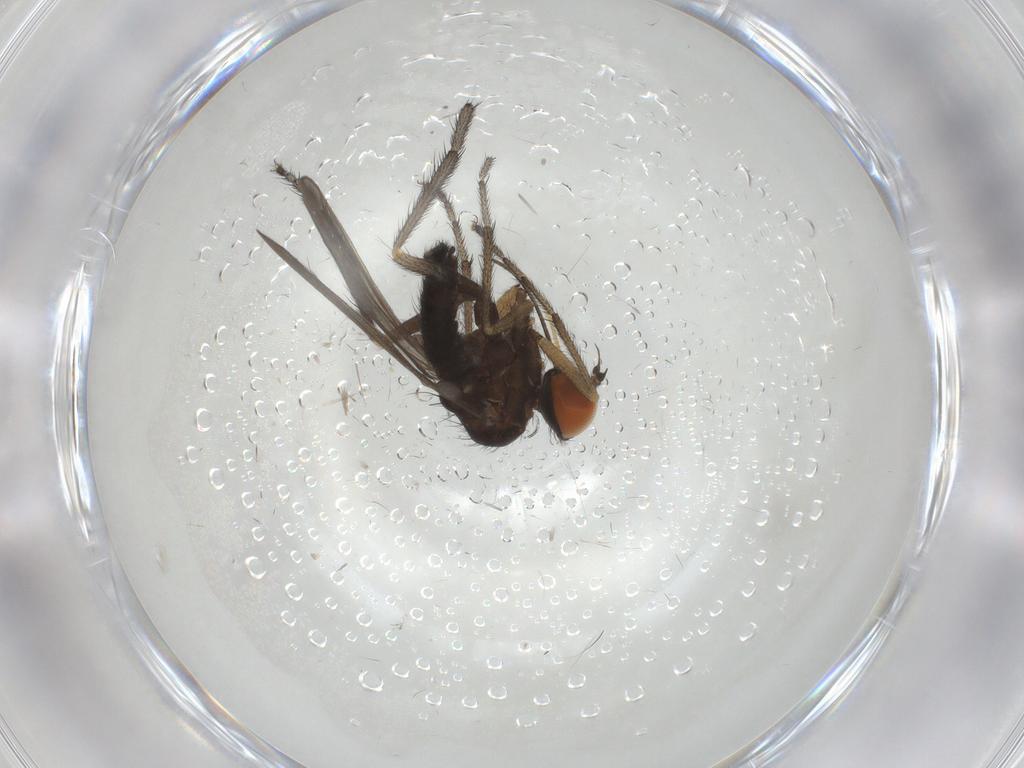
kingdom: Animalia
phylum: Arthropoda
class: Insecta
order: Diptera
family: Empididae
